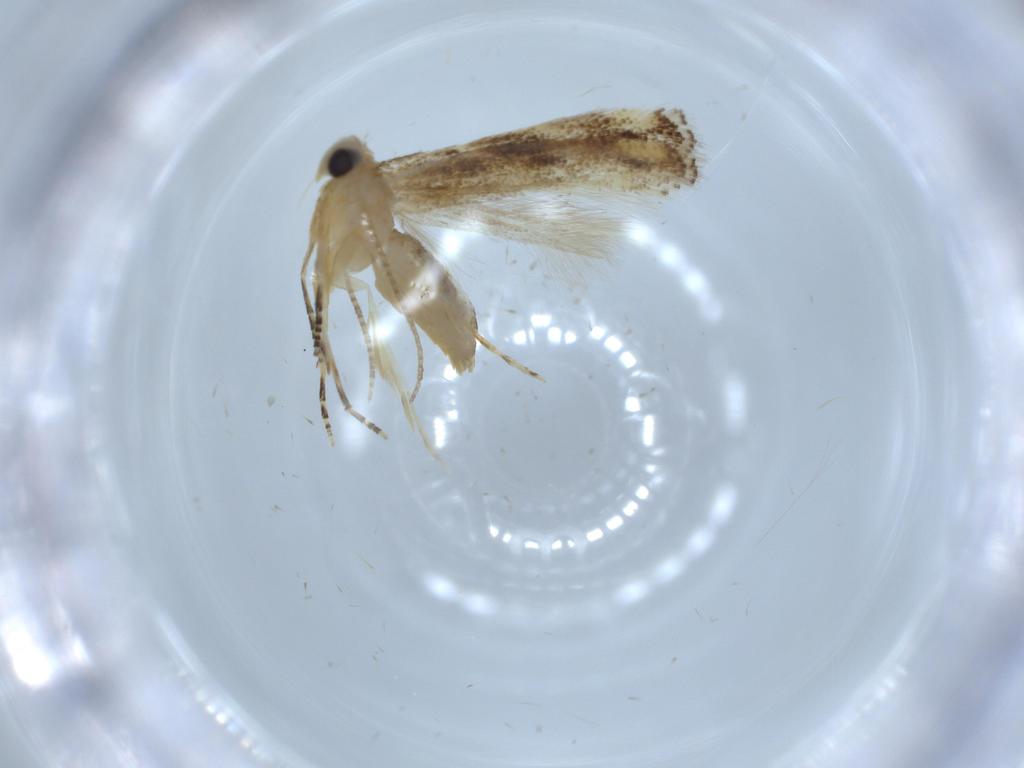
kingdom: Animalia
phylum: Arthropoda
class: Insecta
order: Lepidoptera
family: Bucculatricidae
